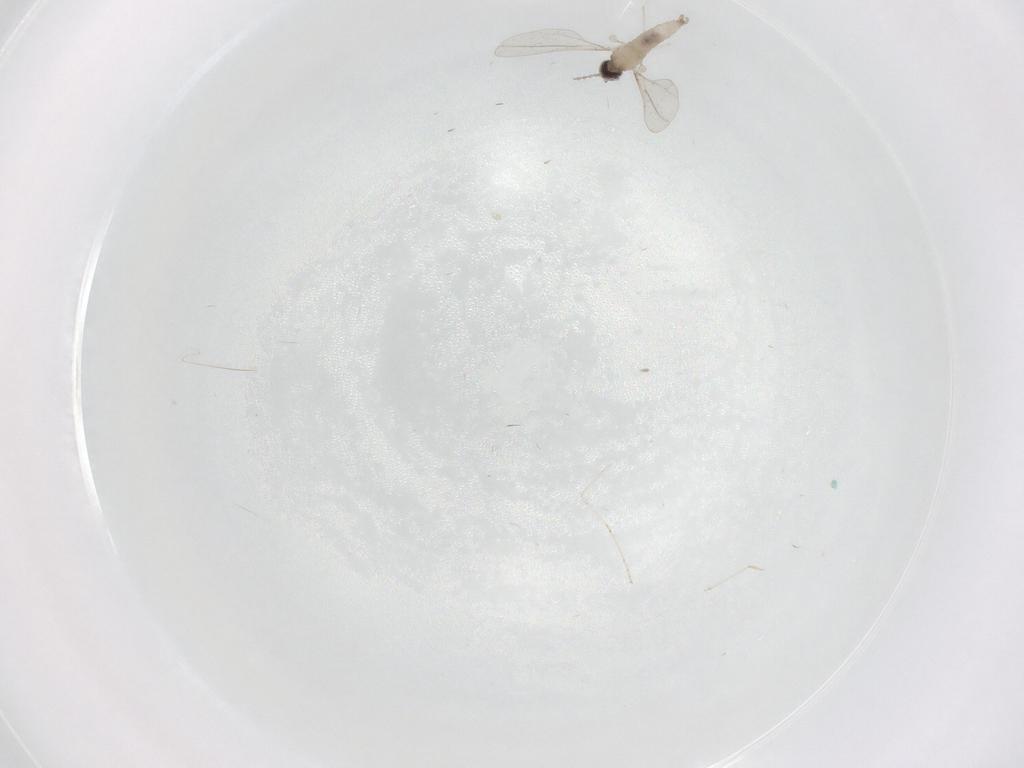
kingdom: Animalia
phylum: Arthropoda
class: Insecta
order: Diptera
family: Cecidomyiidae
